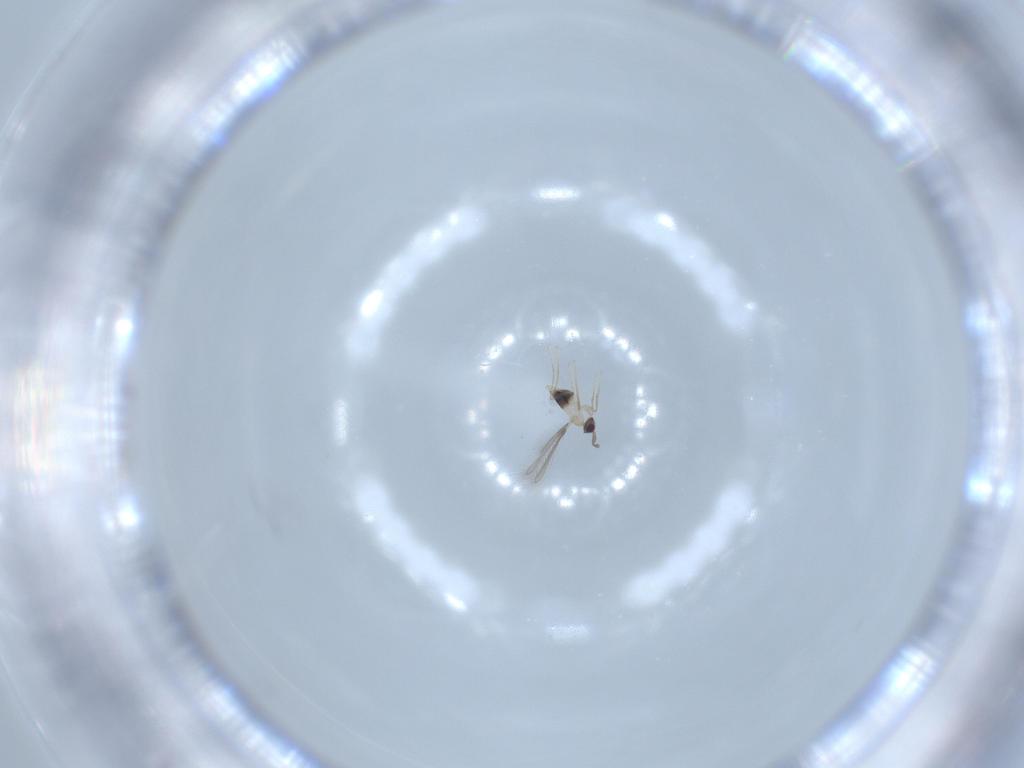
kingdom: Animalia
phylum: Arthropoda
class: Insecta
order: Hymenoptera
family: Mymaridae
